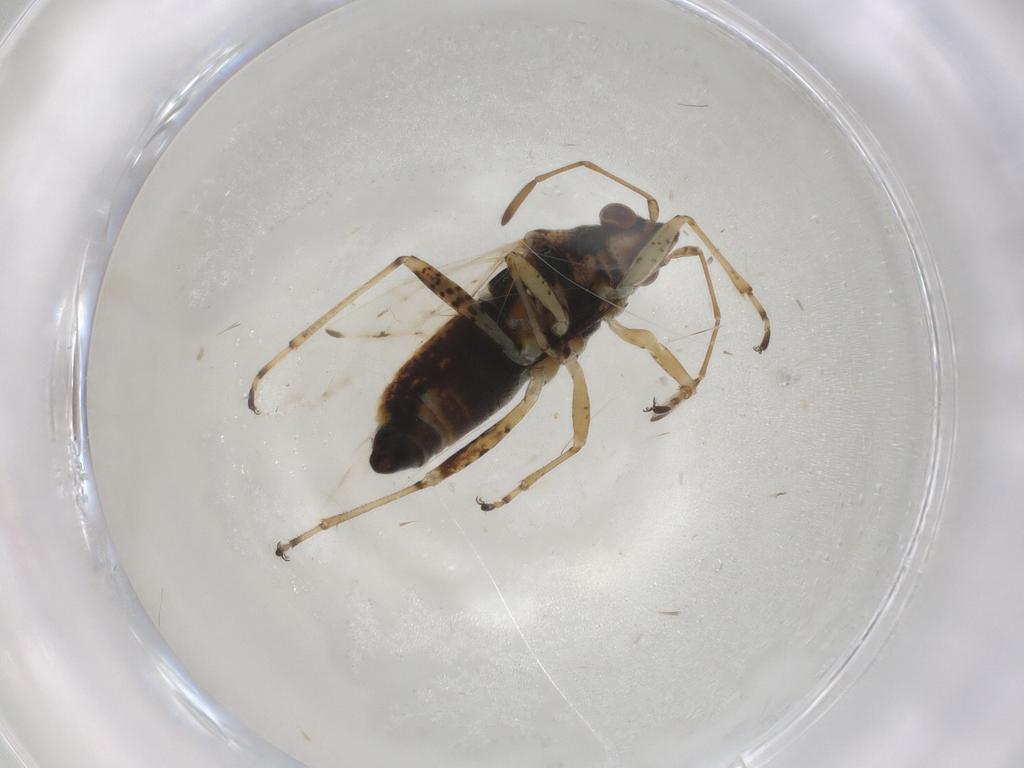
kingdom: Animalia
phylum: Arthropoda
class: Insecta
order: Hemiptera
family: Lygaeidae
